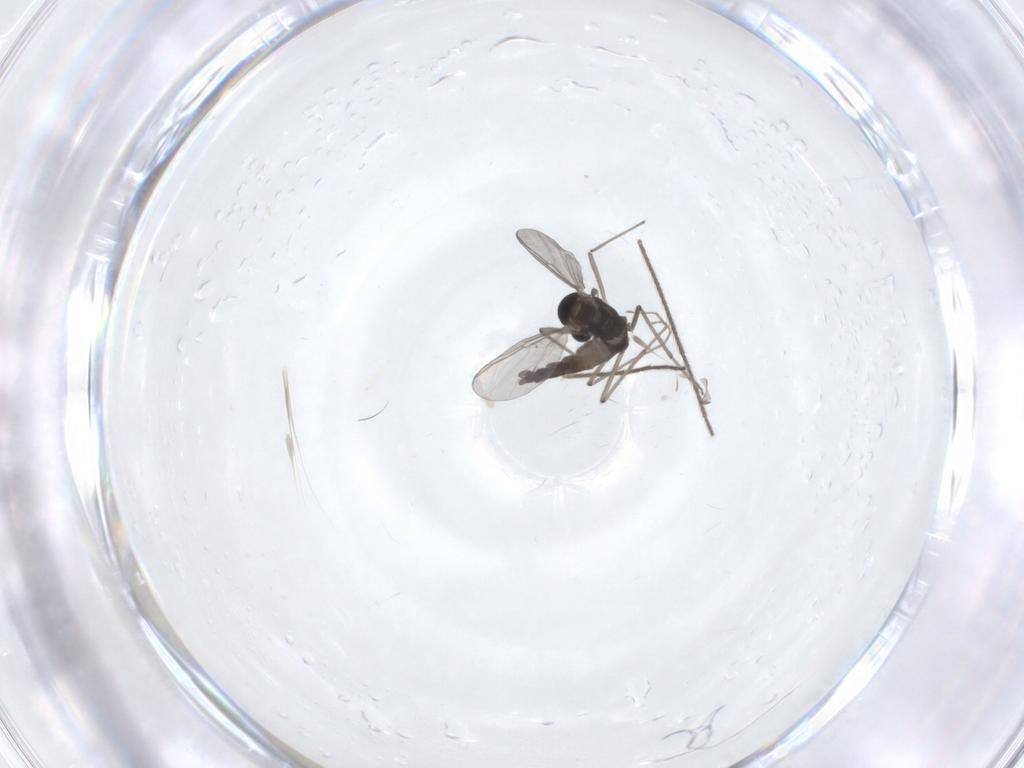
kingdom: Animalia
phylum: Arthropoda
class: Insecta
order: Diptera
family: Chironomidae
